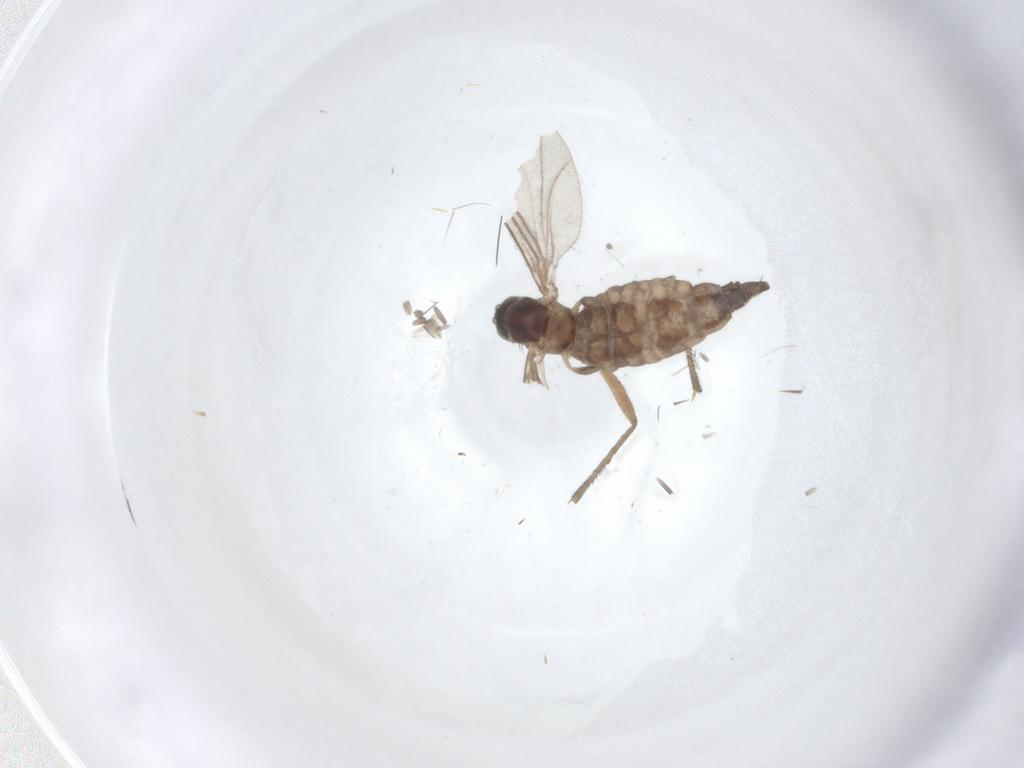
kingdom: Animalia
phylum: Arthropoda
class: Insecta
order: Diptera
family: Sciaridae
